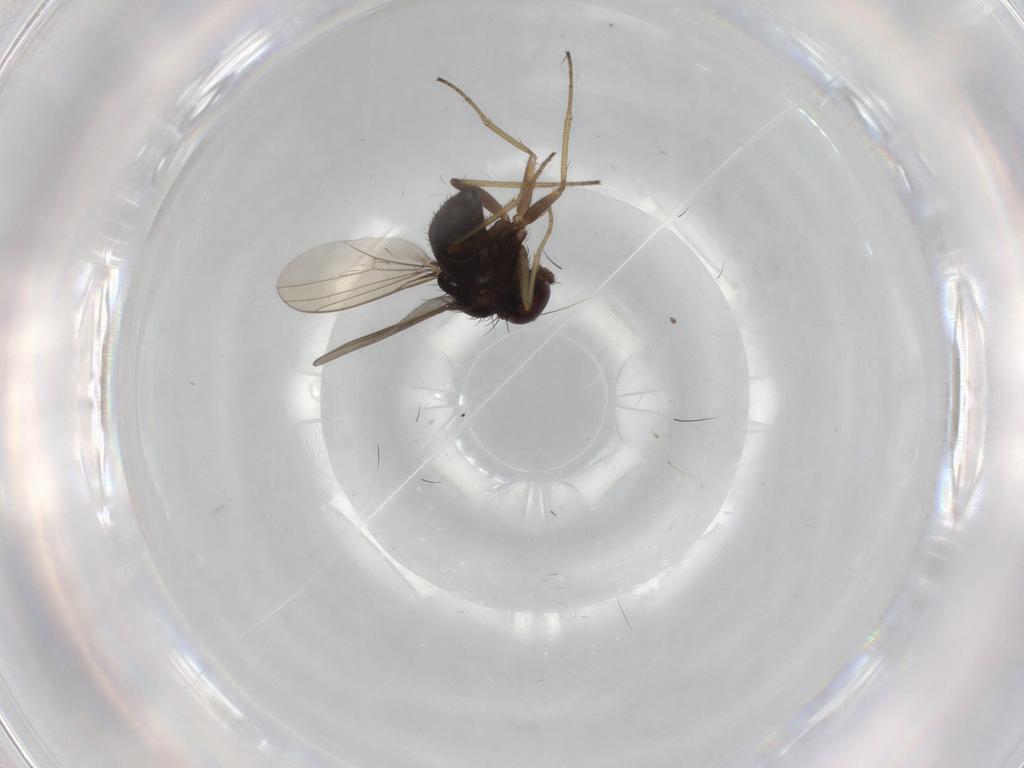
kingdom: Animalia
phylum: Arthropoda
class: Insecta
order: Diptera
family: Dolichopodidae
